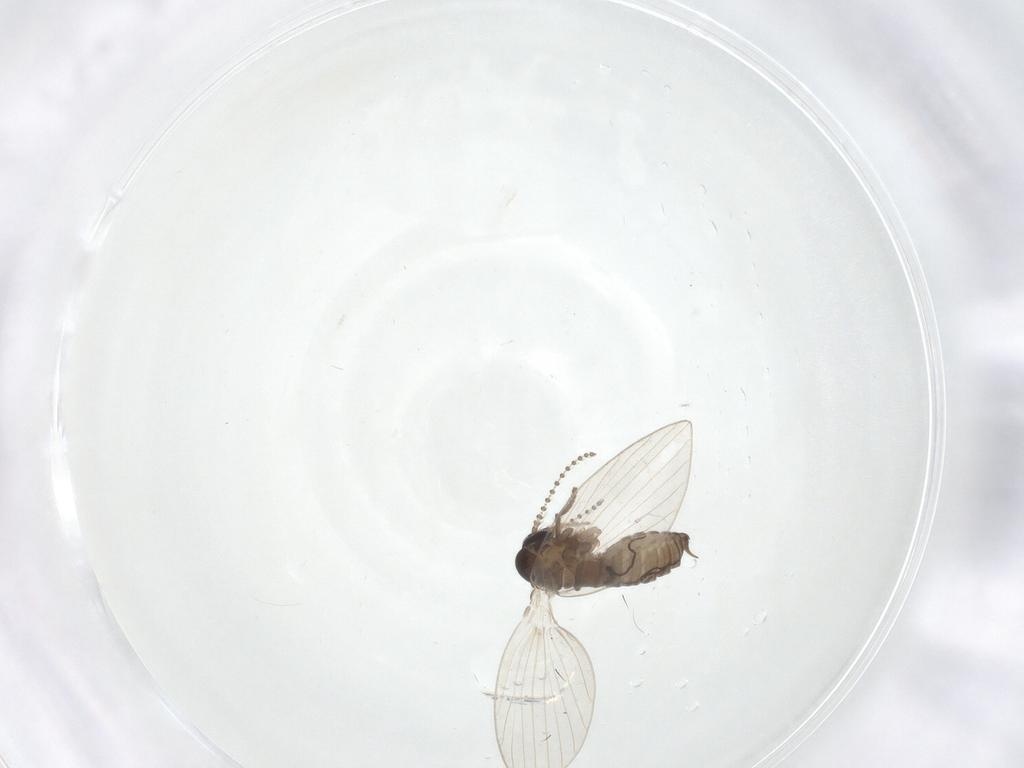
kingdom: Animalia
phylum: Arthropoda
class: Insecta
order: Diptera
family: Psychodidae
